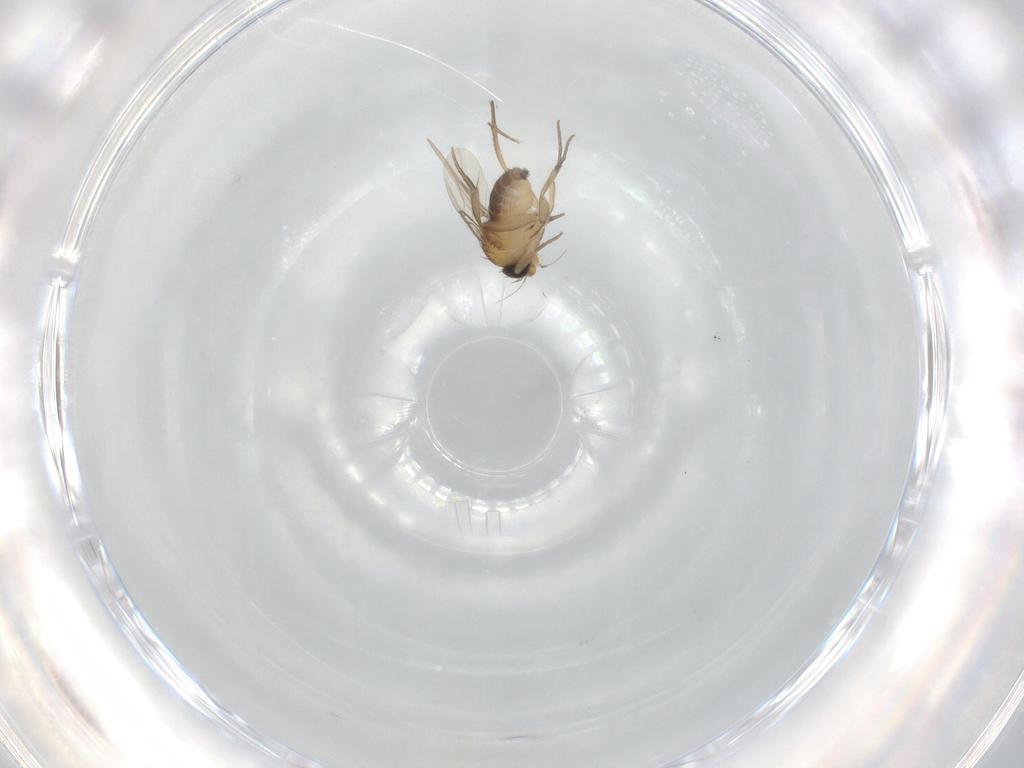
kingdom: Animalia
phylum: Arthropoda
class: Insecta
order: Diptera
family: Phoridae
